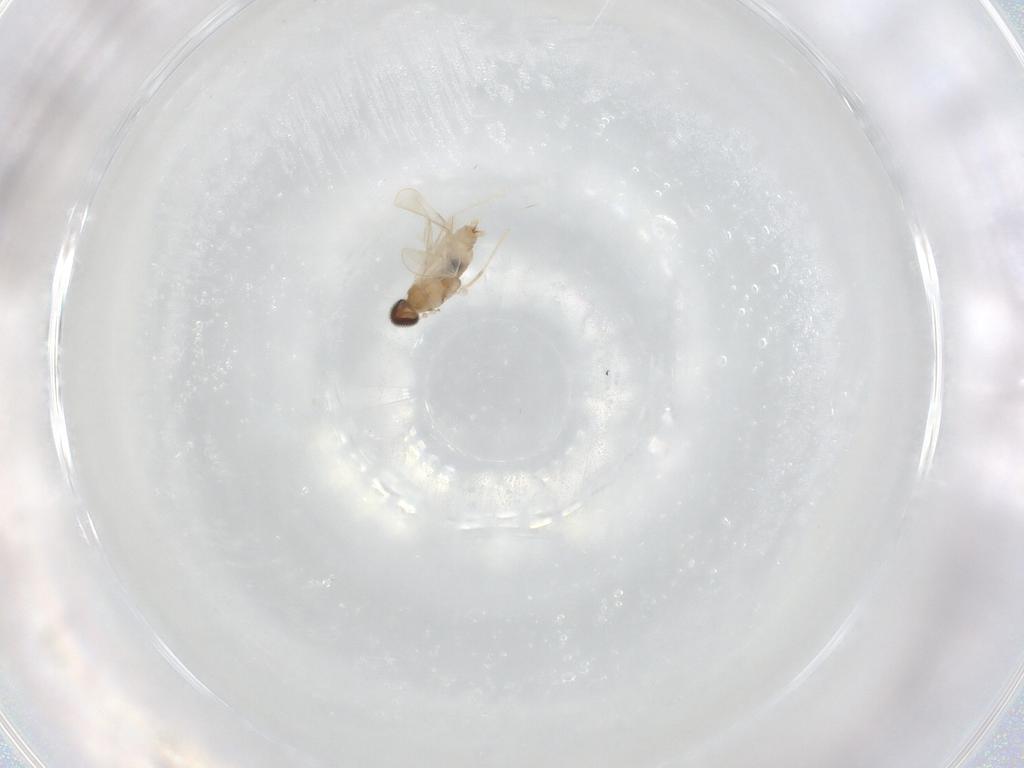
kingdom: Animalia
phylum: Arthropoda
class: Insecta
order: Diptera
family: Cecidomyiidae
